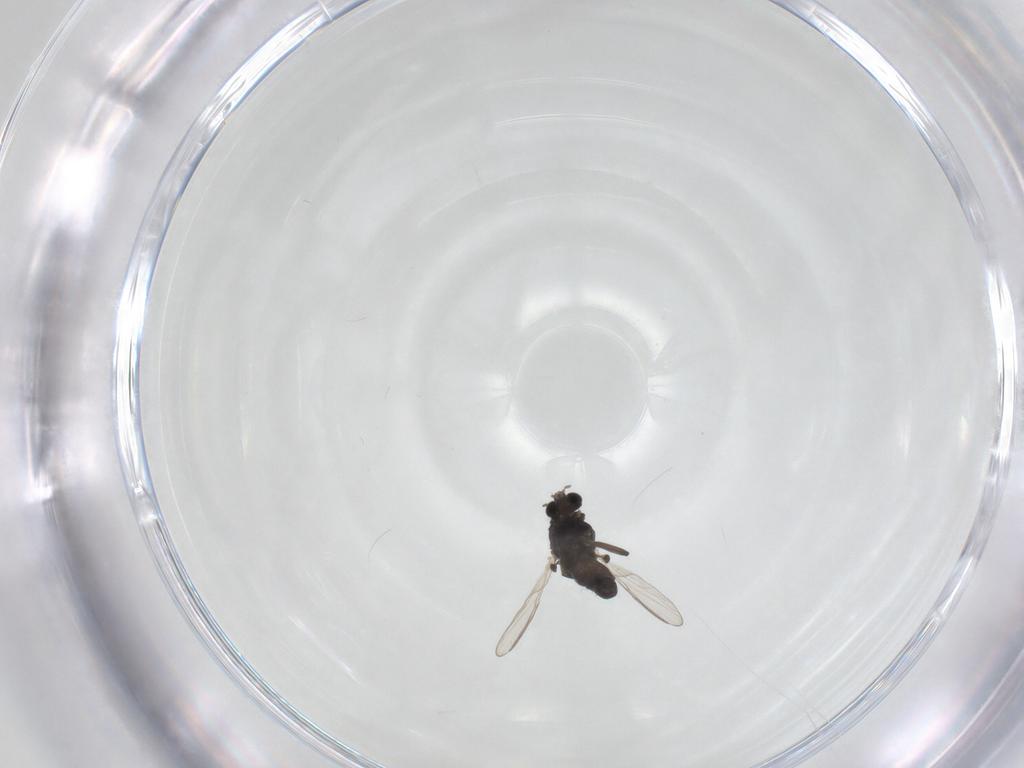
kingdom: Animalia
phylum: Arthropoda
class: Insecta
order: Diptera
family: Chironomidae
